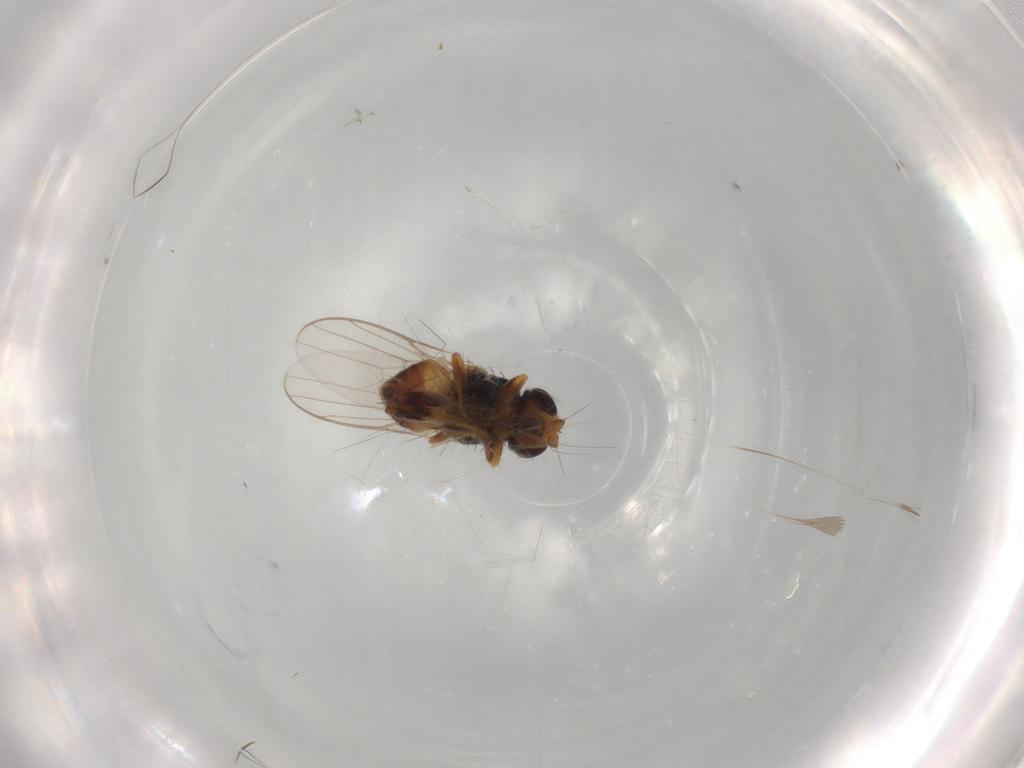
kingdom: Animalia
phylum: Arthropoda
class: Insecta
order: Diptera
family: Chloropidae
